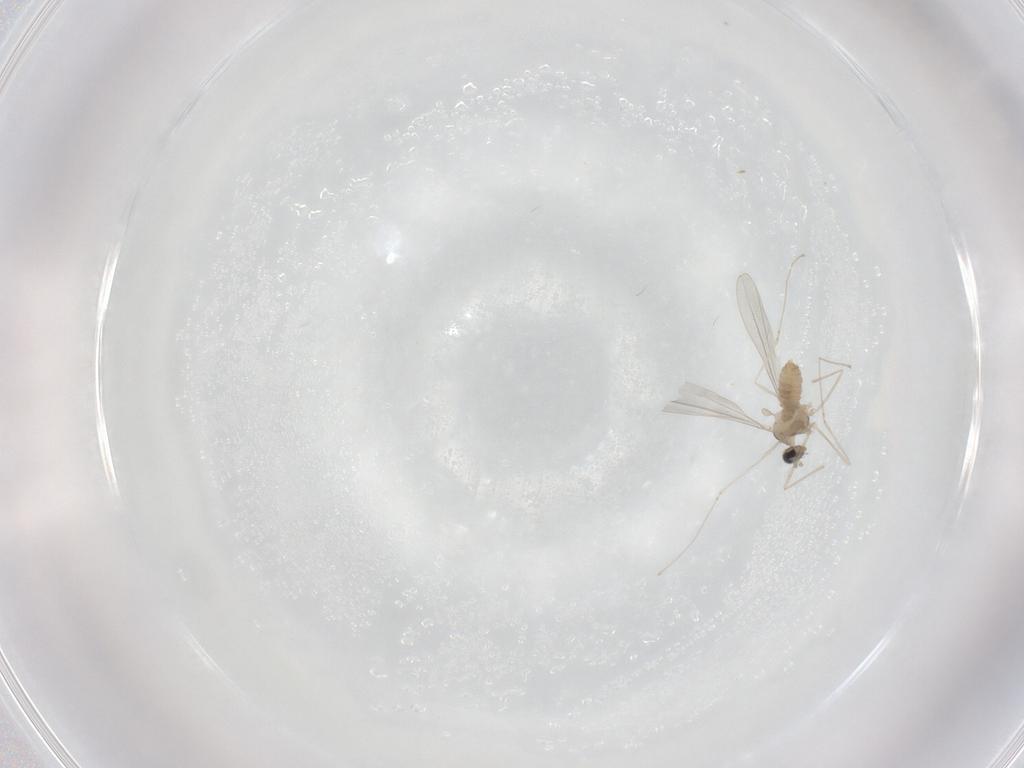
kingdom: Animalia
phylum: Arthropoda
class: Insecta
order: Diptera
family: Cecidomyiidae
